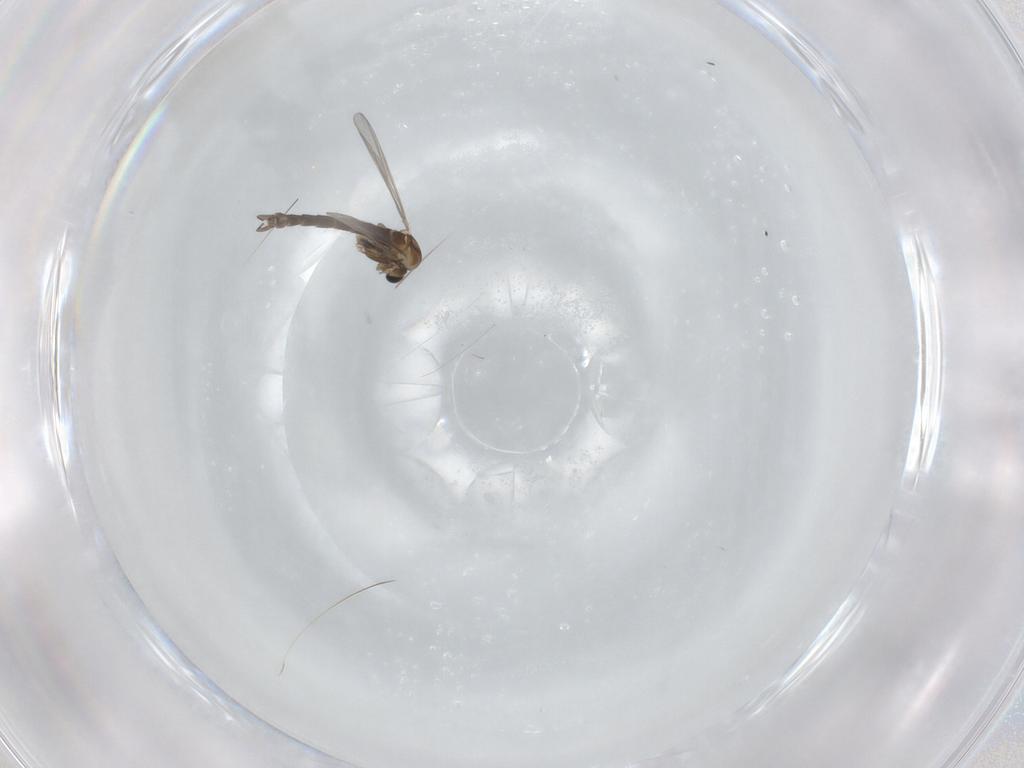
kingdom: Animalia
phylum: Arthropoda
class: Insecta
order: Diptera
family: Chironomidae
